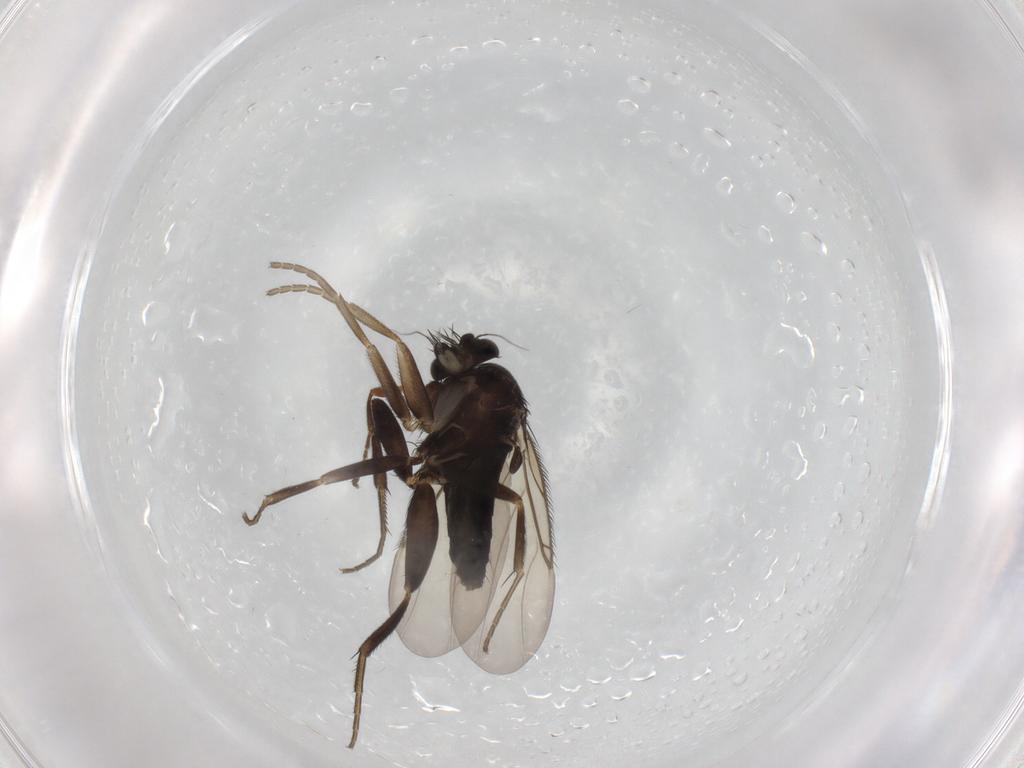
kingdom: Animalia
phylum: Arthropoda
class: Insecta
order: Diptera
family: Phoridae
